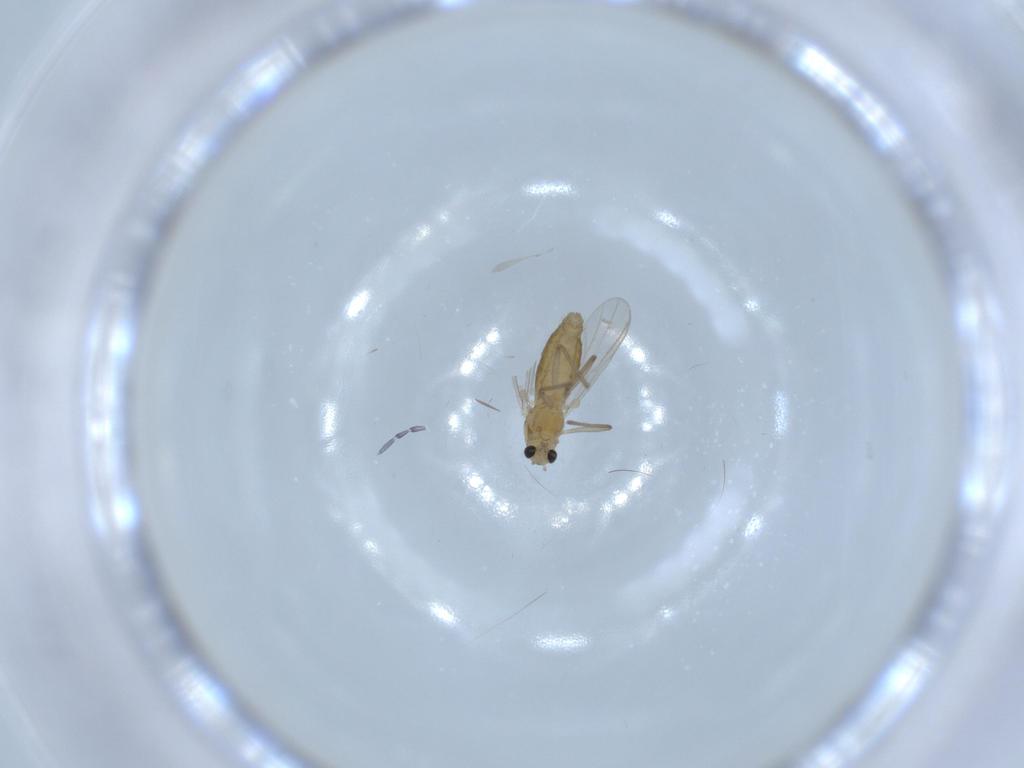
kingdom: Animalia
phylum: Arthropoda
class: Insecta
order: Diptera
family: Chironomidae
